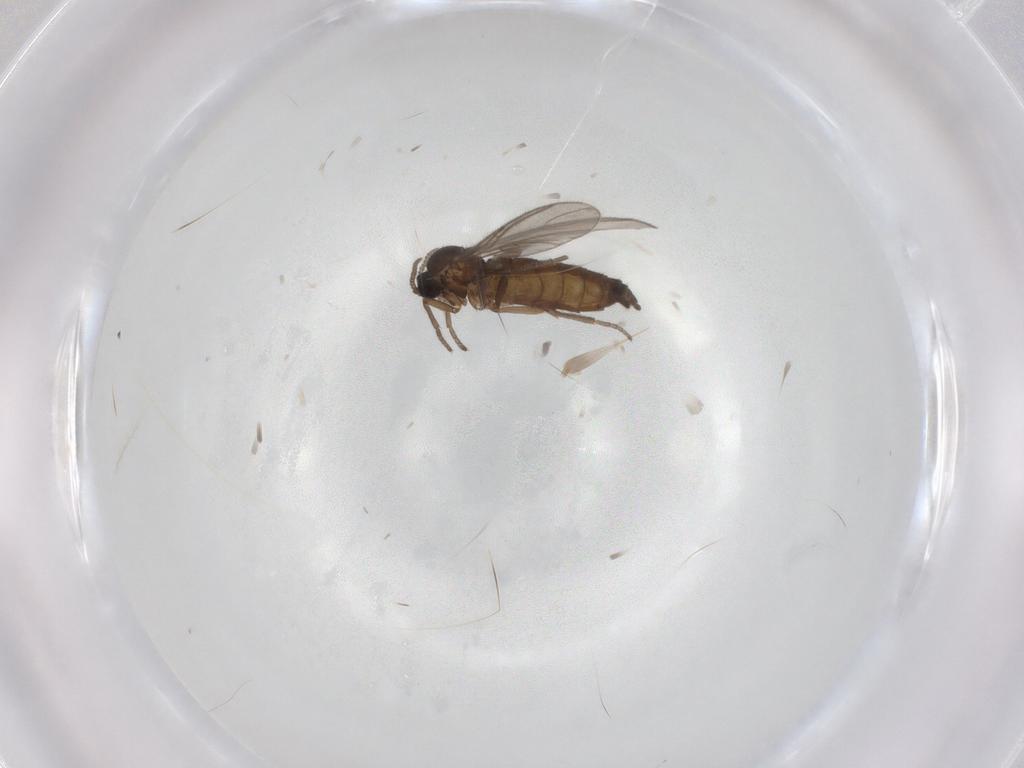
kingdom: Animalia
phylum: Arthropoda
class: Insecta
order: Diptera
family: Sciaridae
